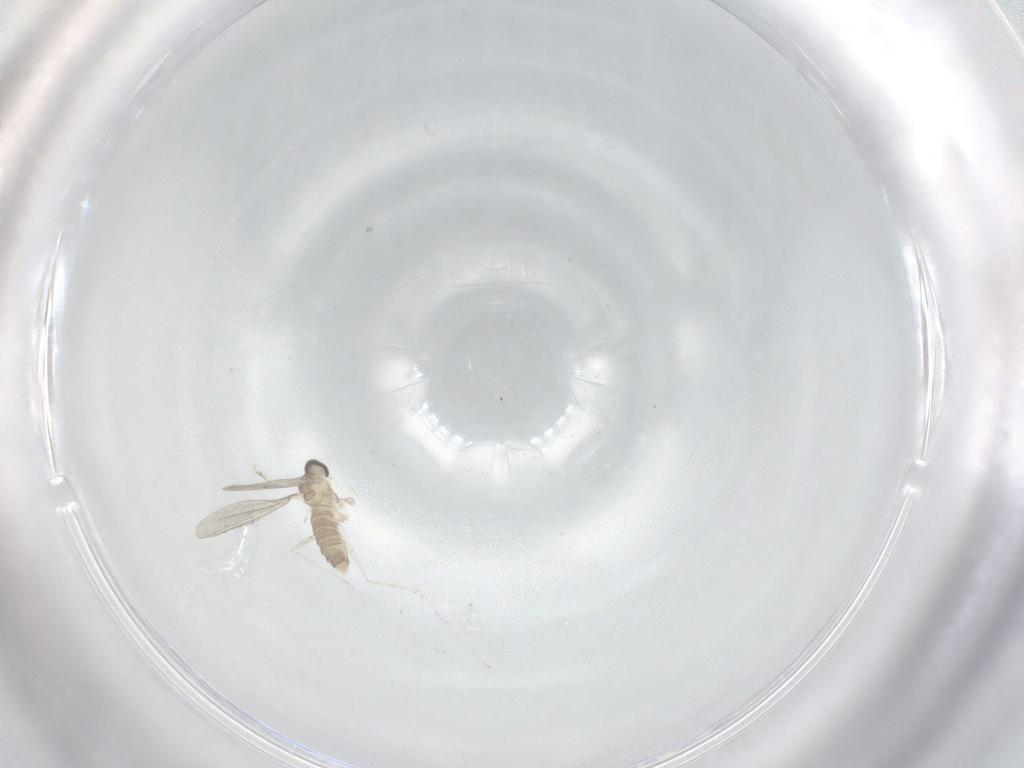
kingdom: Animalia
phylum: Arthropoda
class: Insecta
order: Diptera
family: Cecidomyiidae
